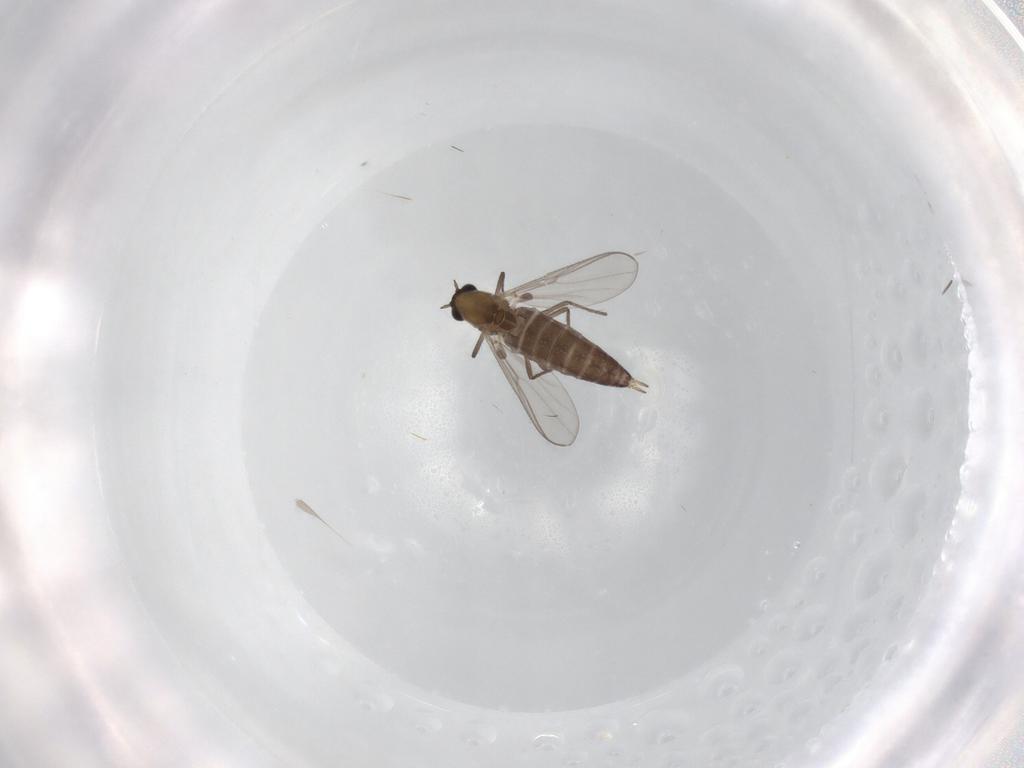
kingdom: Animalia
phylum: Arthropoda
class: Insecta
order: Diptera
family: Chironomidae
